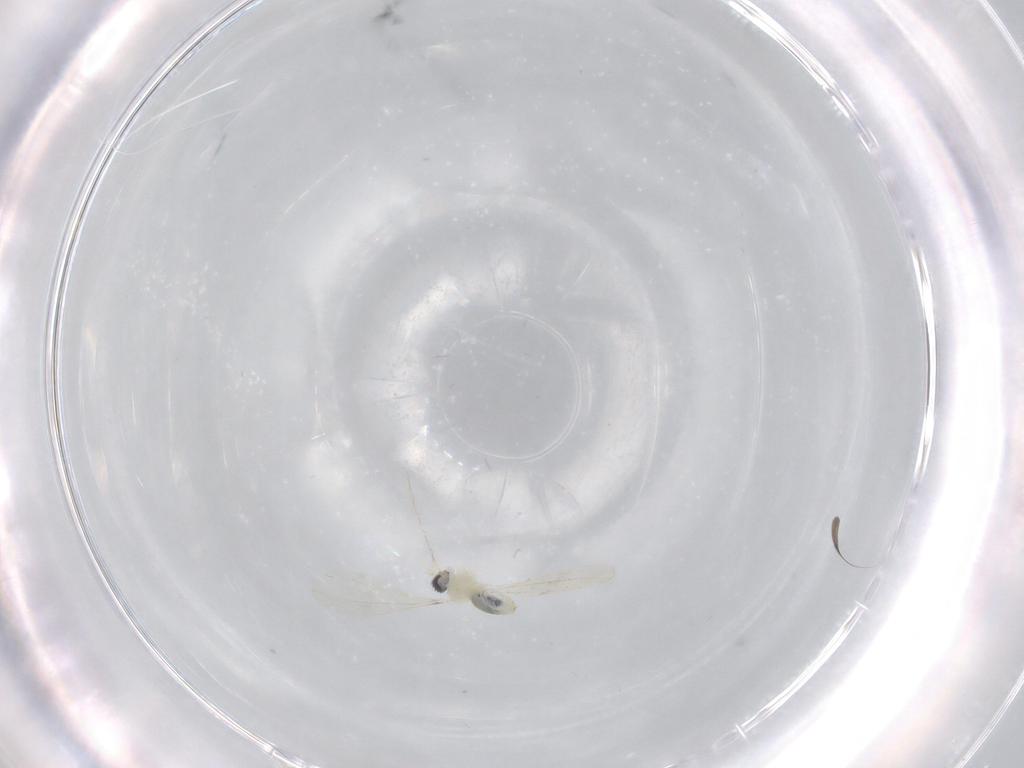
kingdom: Animalia
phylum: Arthropoda
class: Insecta
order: Diptera
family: Cecidomyiidae
